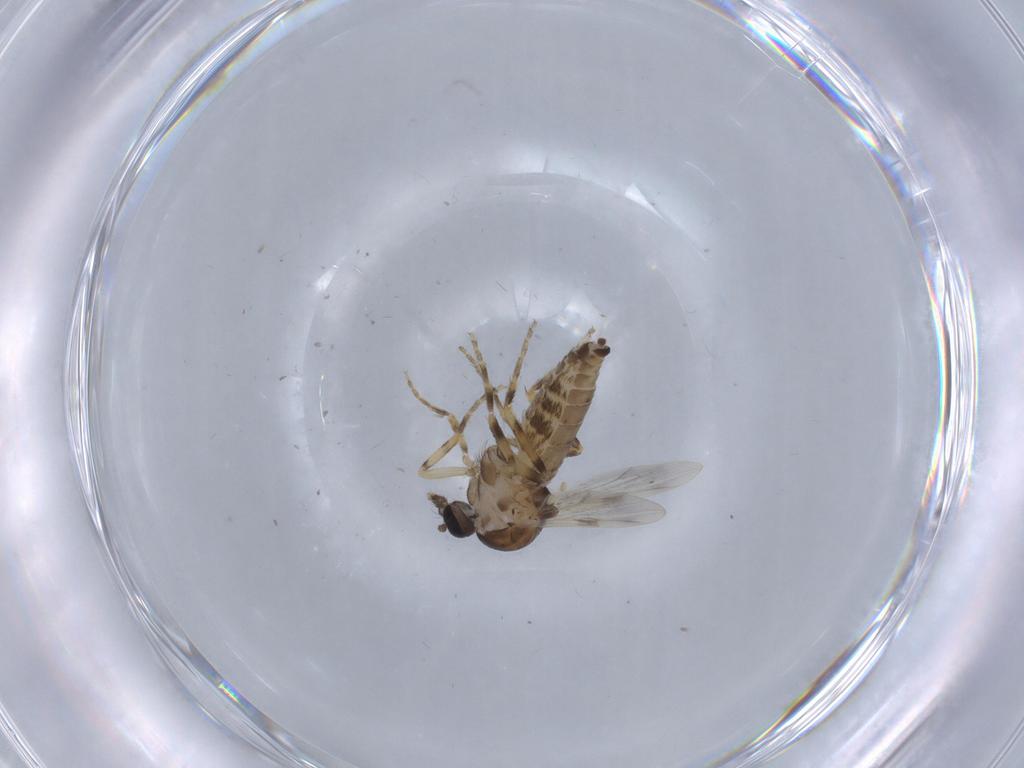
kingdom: Animalia
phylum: Arthropoda
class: Insecta
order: Diptera
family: Ceratopogonidae
